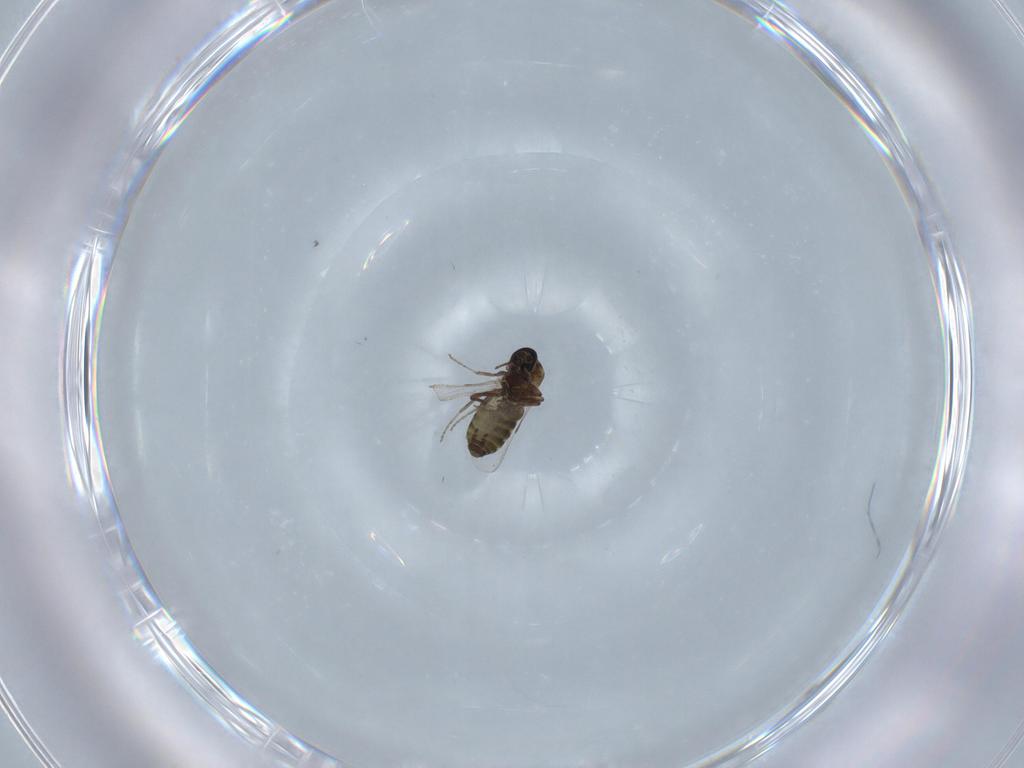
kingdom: Animalia
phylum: Arthropoda
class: Insecta
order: Diptera
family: Ceratopogonidae
